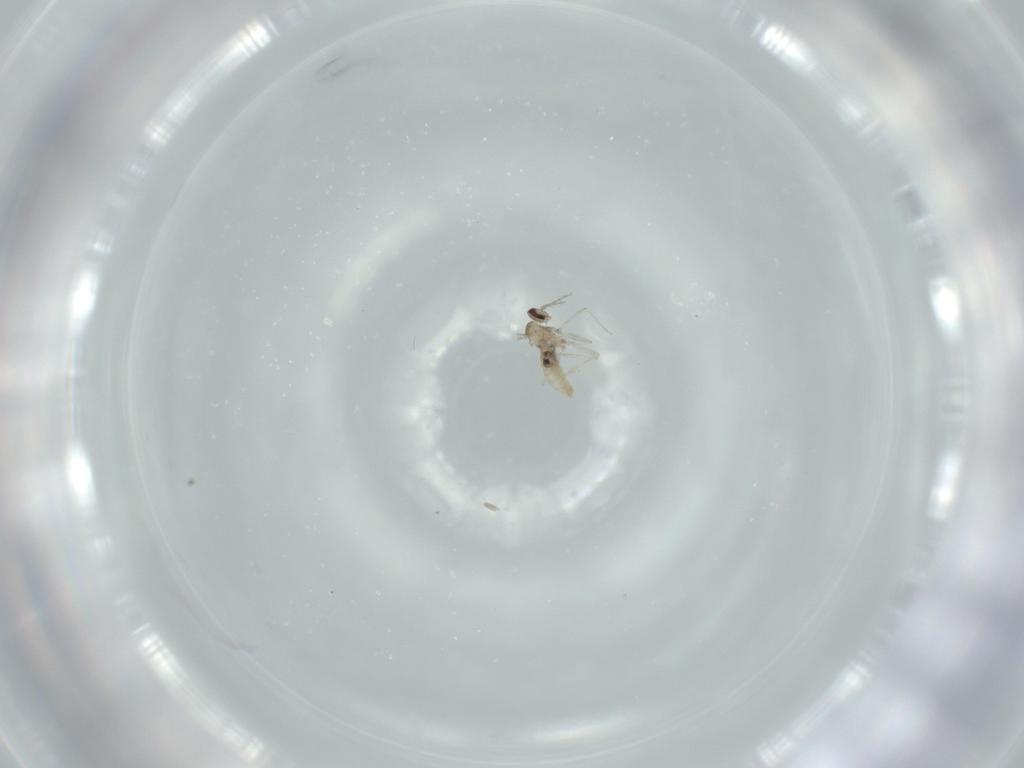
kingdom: Animalia
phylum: Arthropoda
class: Insecta
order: Diptera
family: Cecidomyiidae
